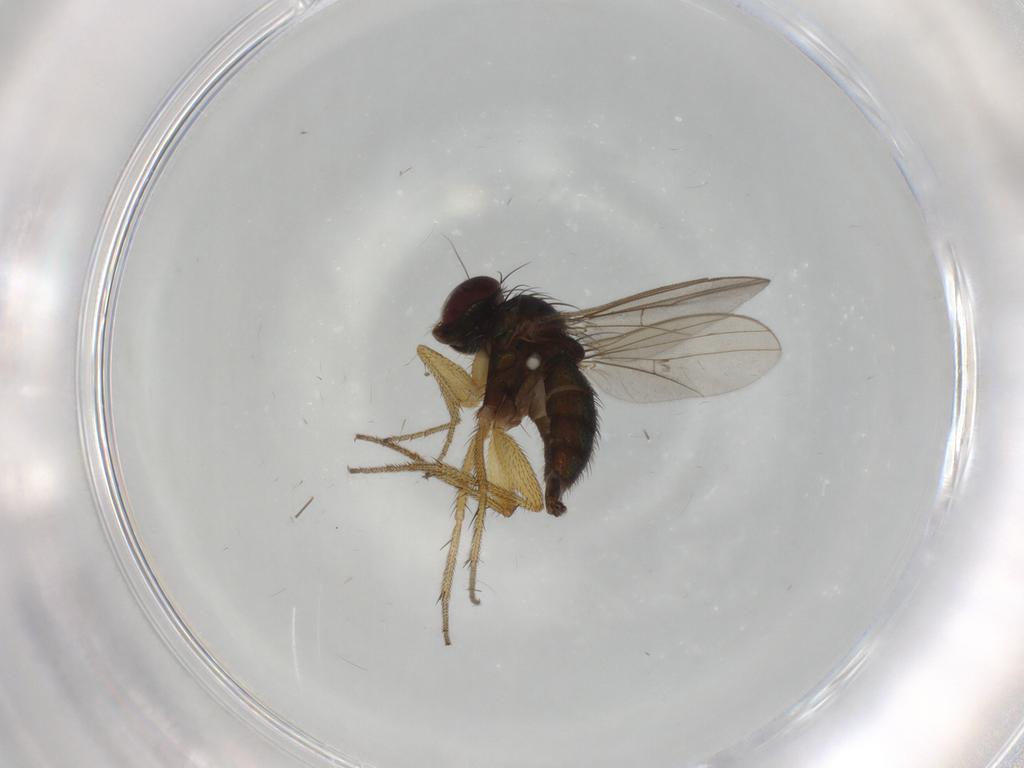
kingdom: Animalia
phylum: Arthropoda
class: Insecta
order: Diptera
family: Dolichopodidae
